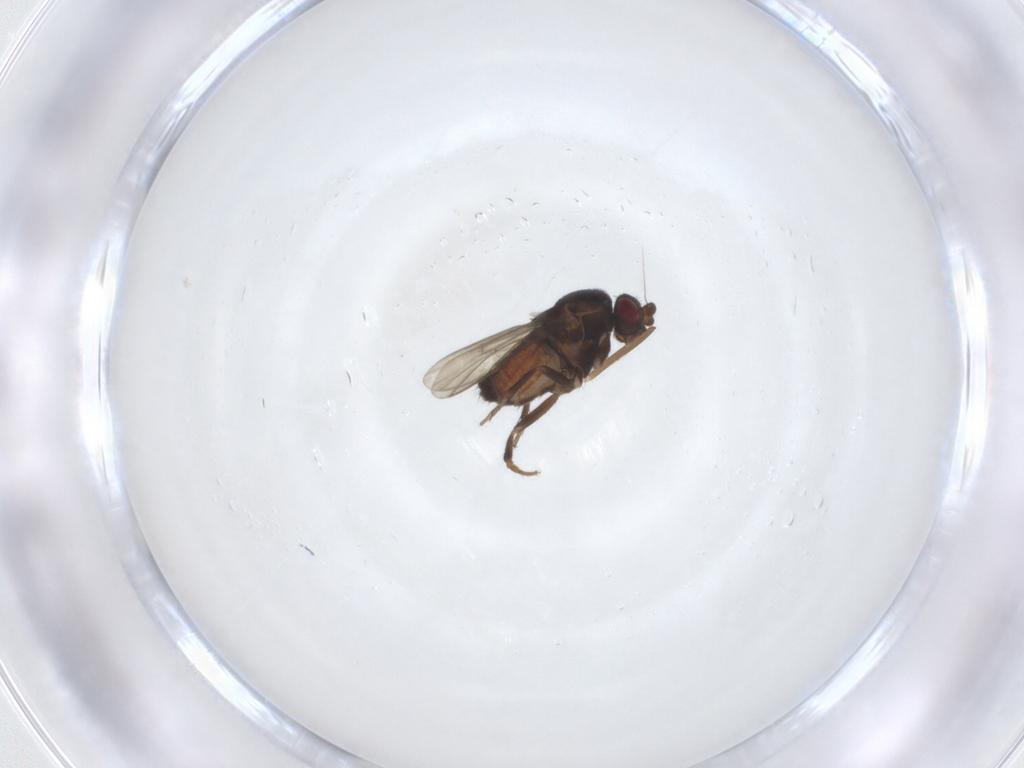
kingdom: Animalia
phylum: Arthropoda
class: Insecta
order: Diptera
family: Sphaeroceridae
